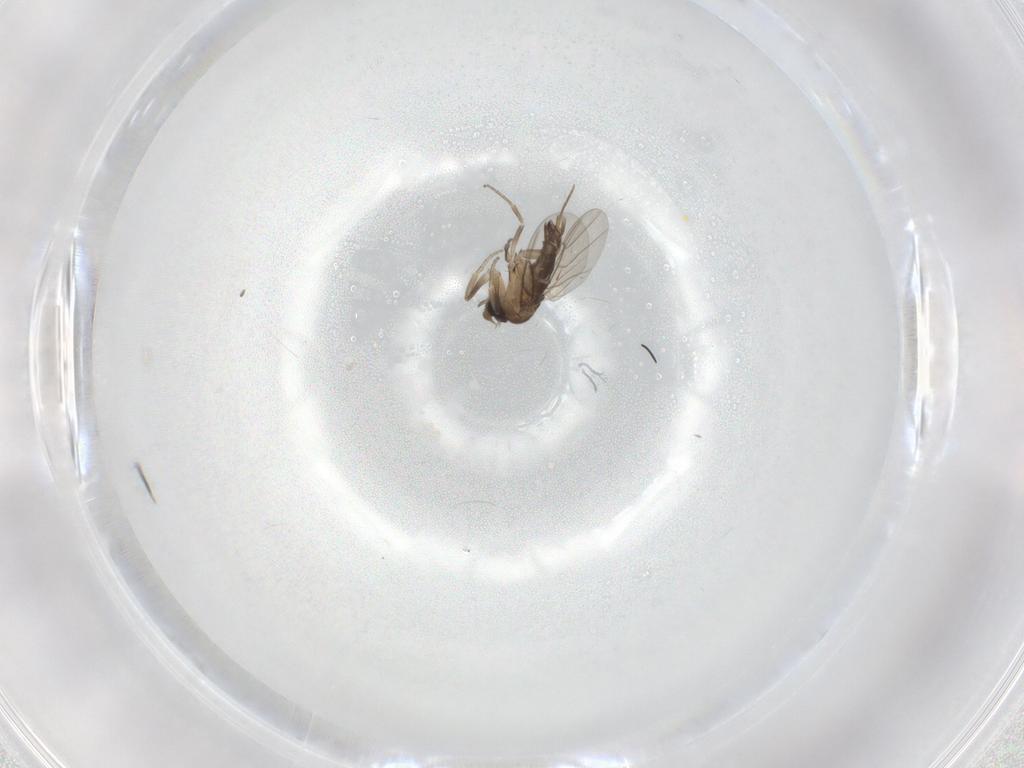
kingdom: Animalia
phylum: Arthropoda
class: Insecta
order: Diptera
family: Phoridae
